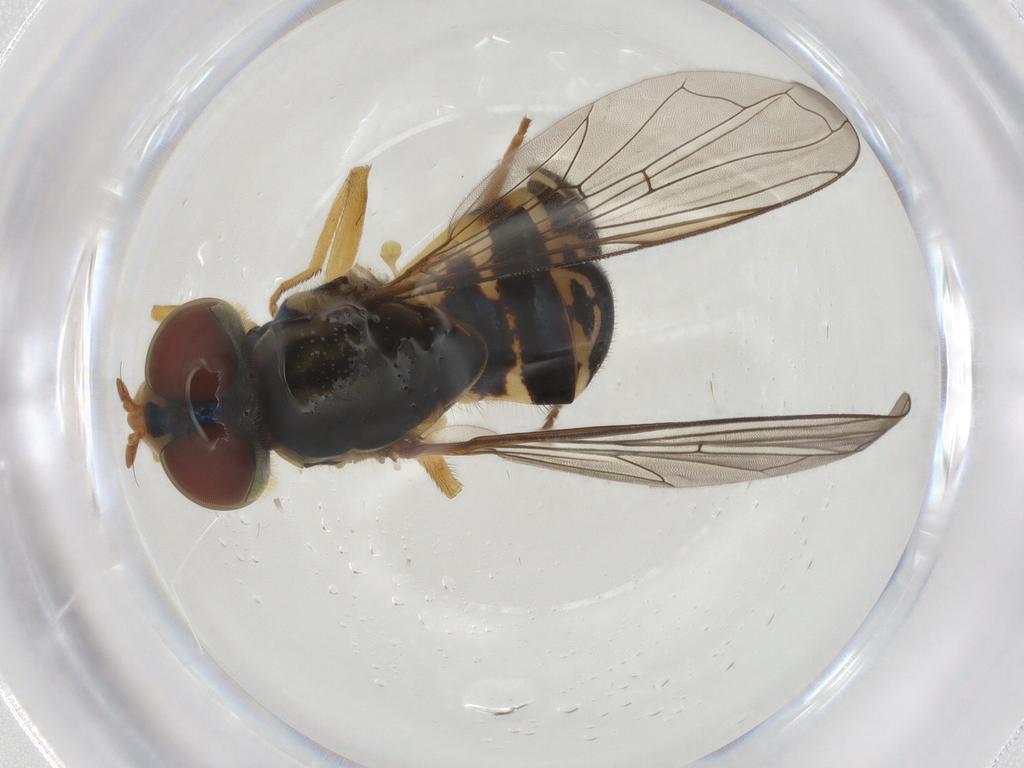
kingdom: Animalia
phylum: Arthropoda
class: Insecta
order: Diptera
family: Syrphidae
